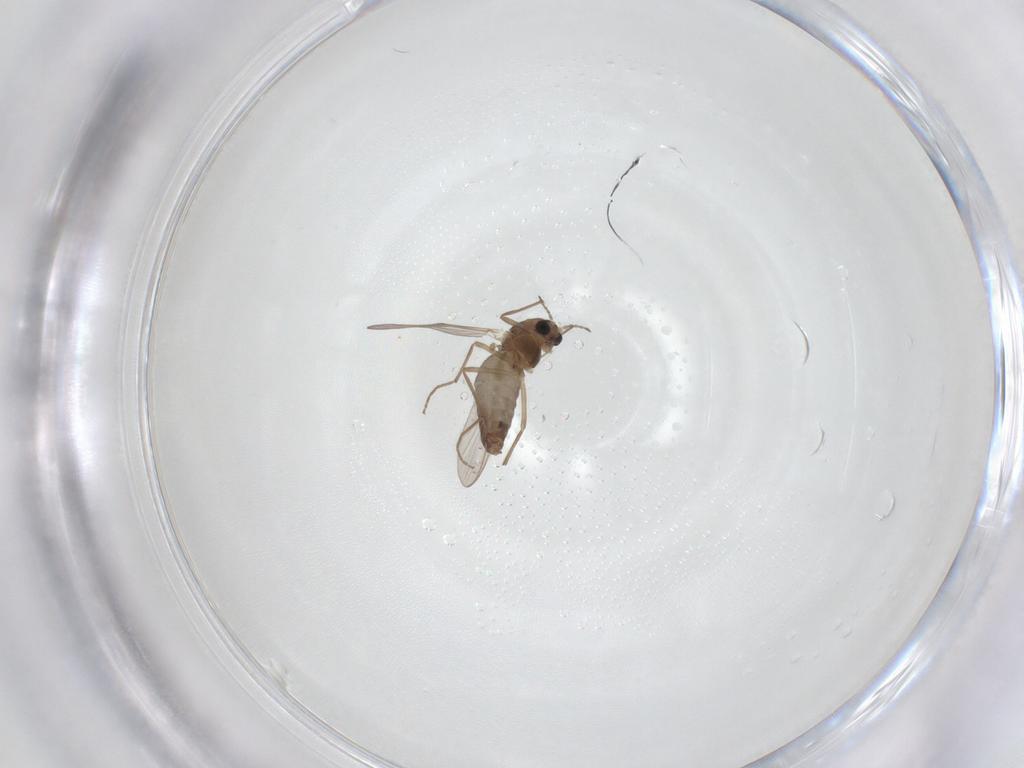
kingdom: Animalia
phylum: Arthropoda
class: Insecta
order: Diptera
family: Chironomidae
